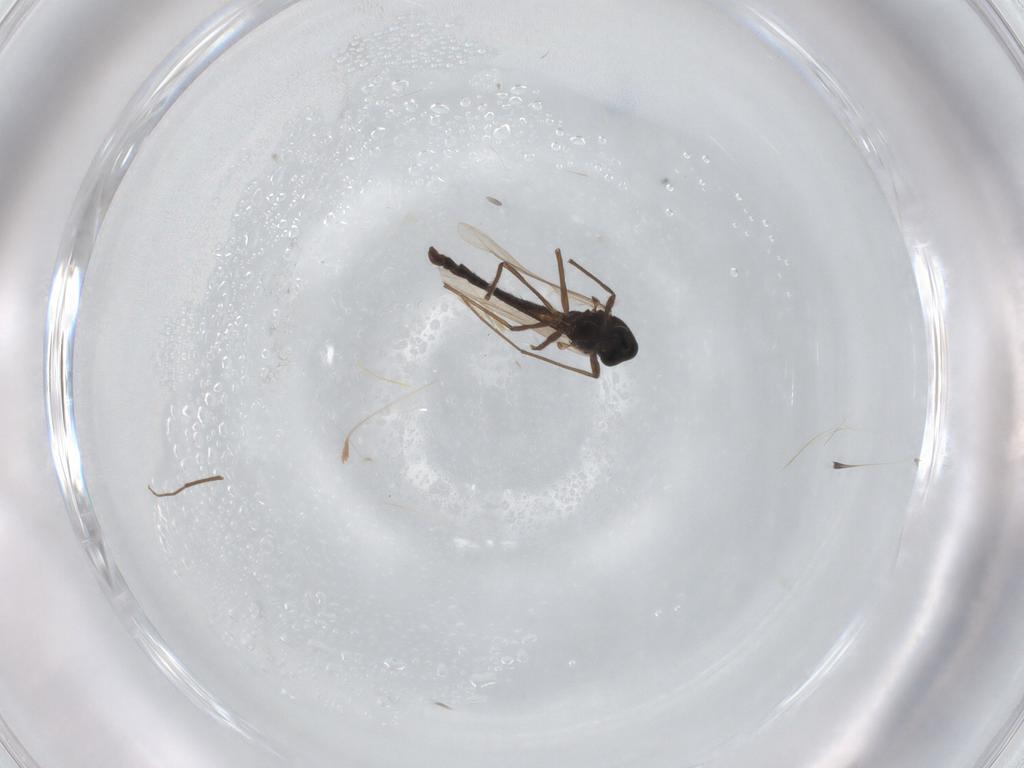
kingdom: Animalia
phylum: Arthropoda
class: Insecta
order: Diptera
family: Chironomidae
